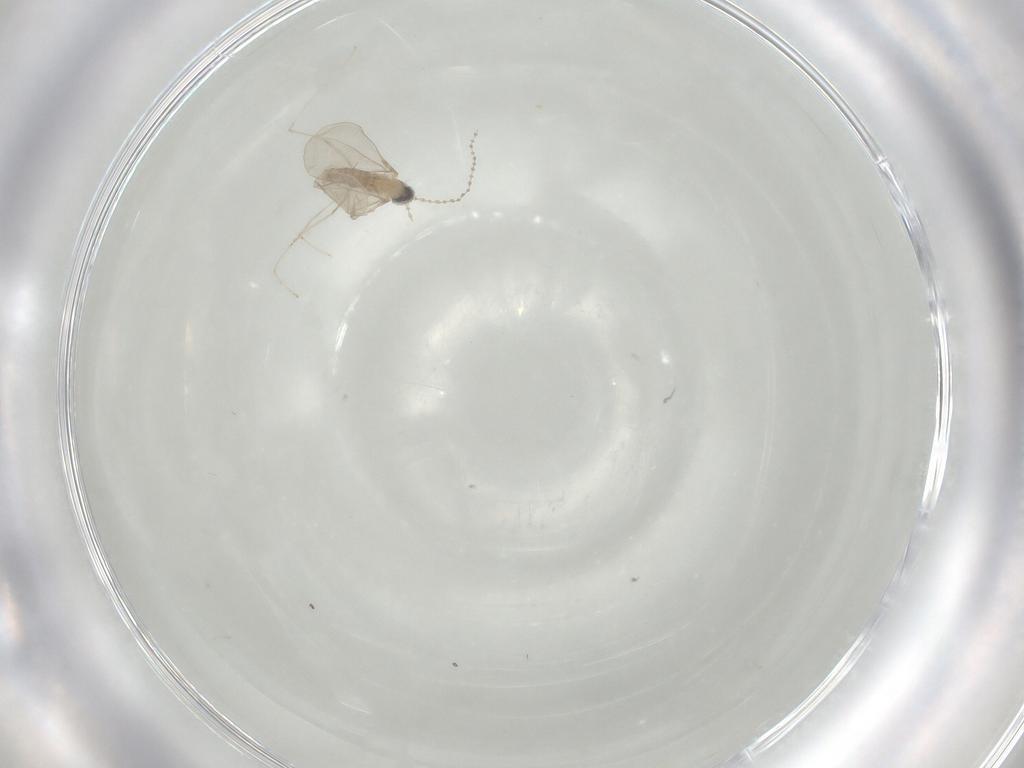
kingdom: Animalia
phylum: Arthropoda
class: Insecta
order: Diptera
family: Cecidomyiidae
